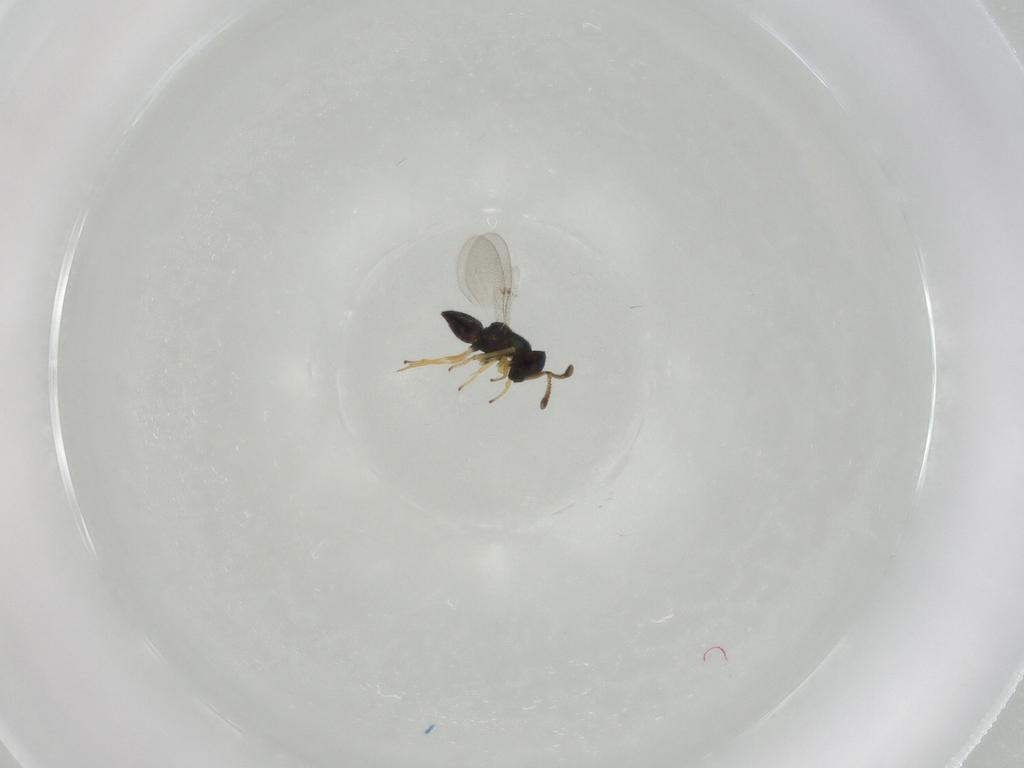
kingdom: Animalia
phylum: Arthropoda
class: Insecta
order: Hymenoptera
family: Encyrtidae
